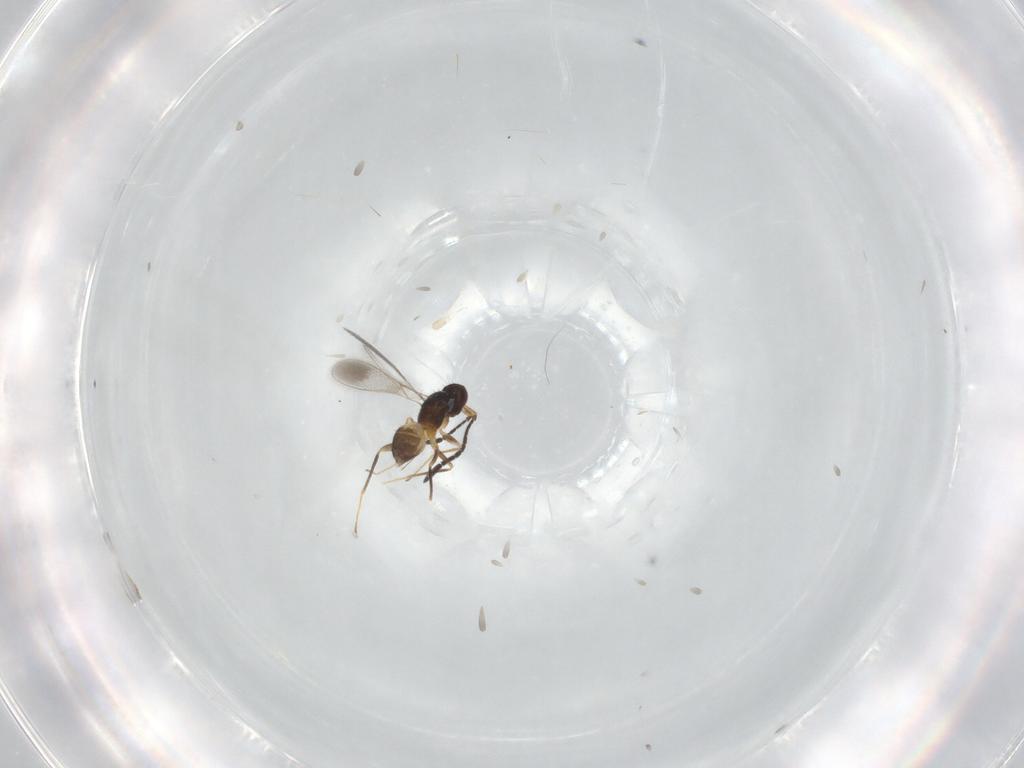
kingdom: Animalia
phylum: Arthropoda
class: Insecta
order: Hymenoptera
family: Mymaridae
